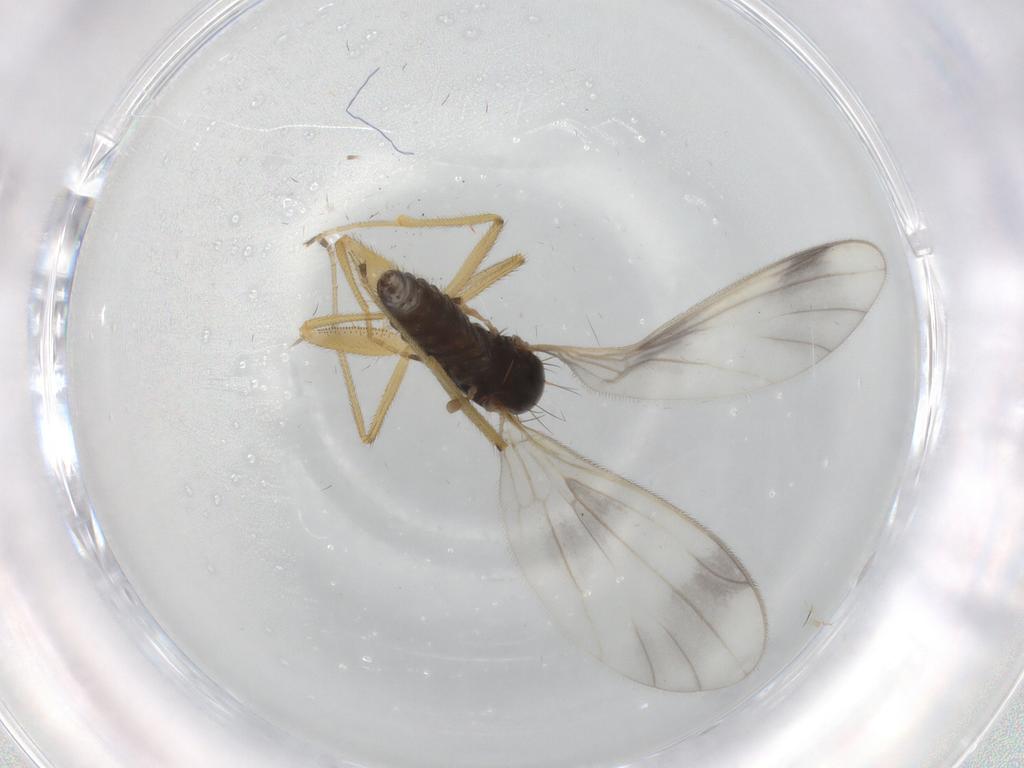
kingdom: Animalia
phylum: Arthropoda
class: Insecta
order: Diptera
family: Empididae
